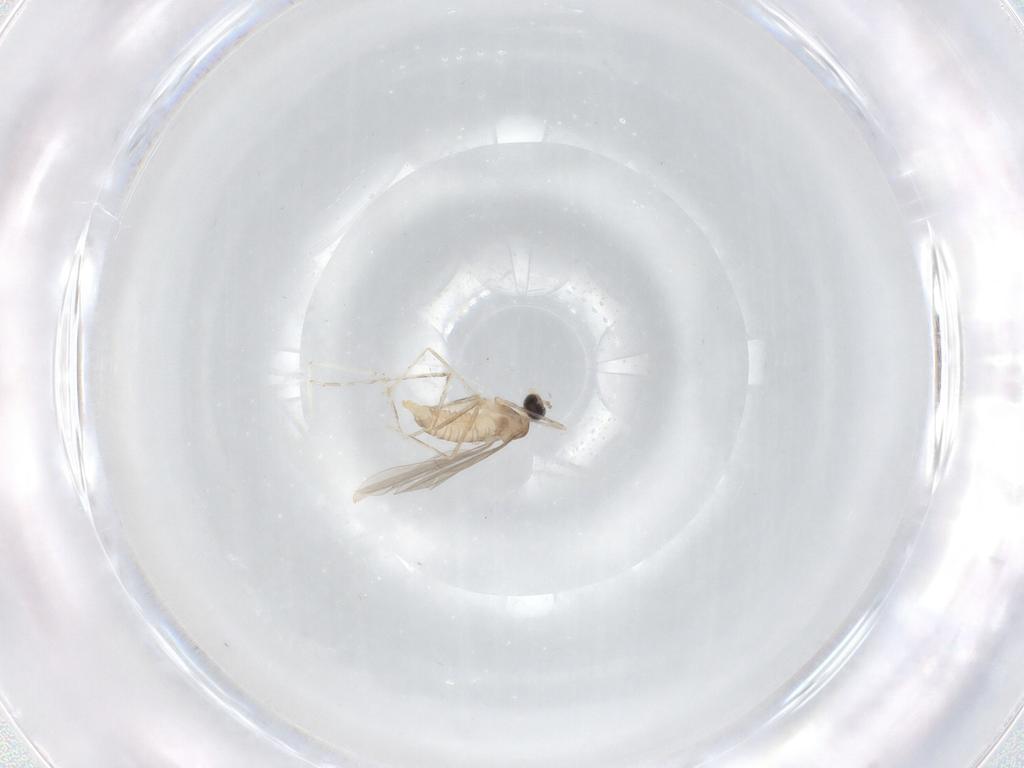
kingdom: Animalia
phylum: Arthropoda
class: Insecta
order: Diptera
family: Cecidomyiidae
